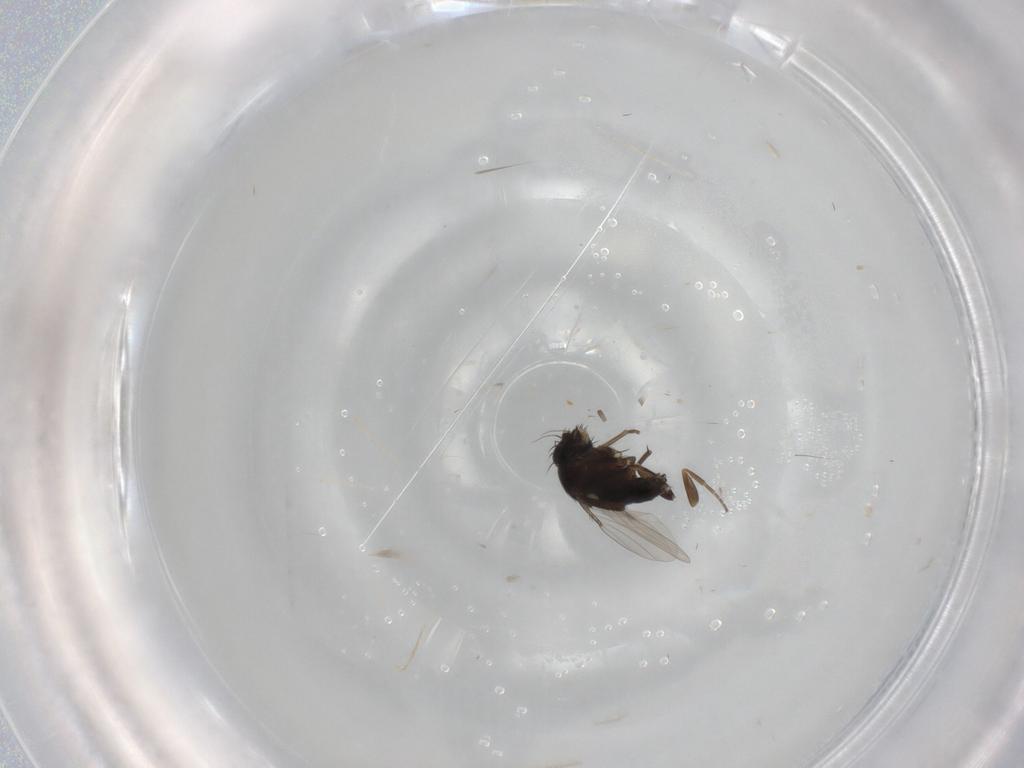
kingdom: Animalia
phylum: Arthropoda
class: Insecta
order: Diptera
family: Phoridae
